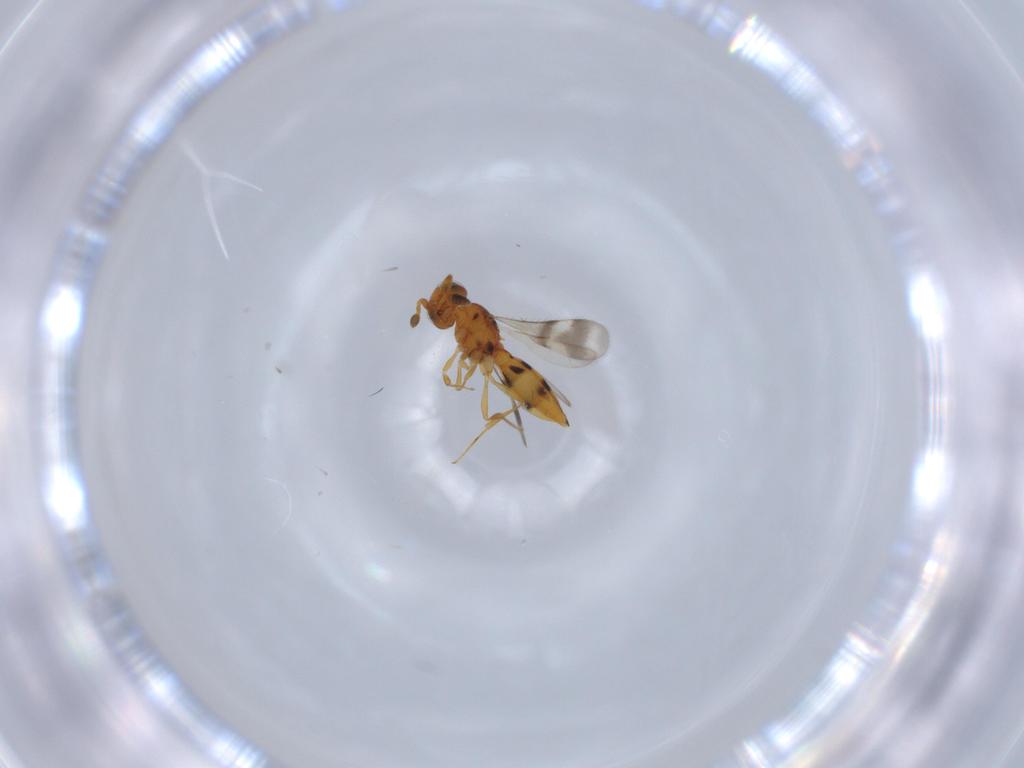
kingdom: Animalia
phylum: Arthropoda
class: Insecta
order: Hymenoptera
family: Scelionidae
